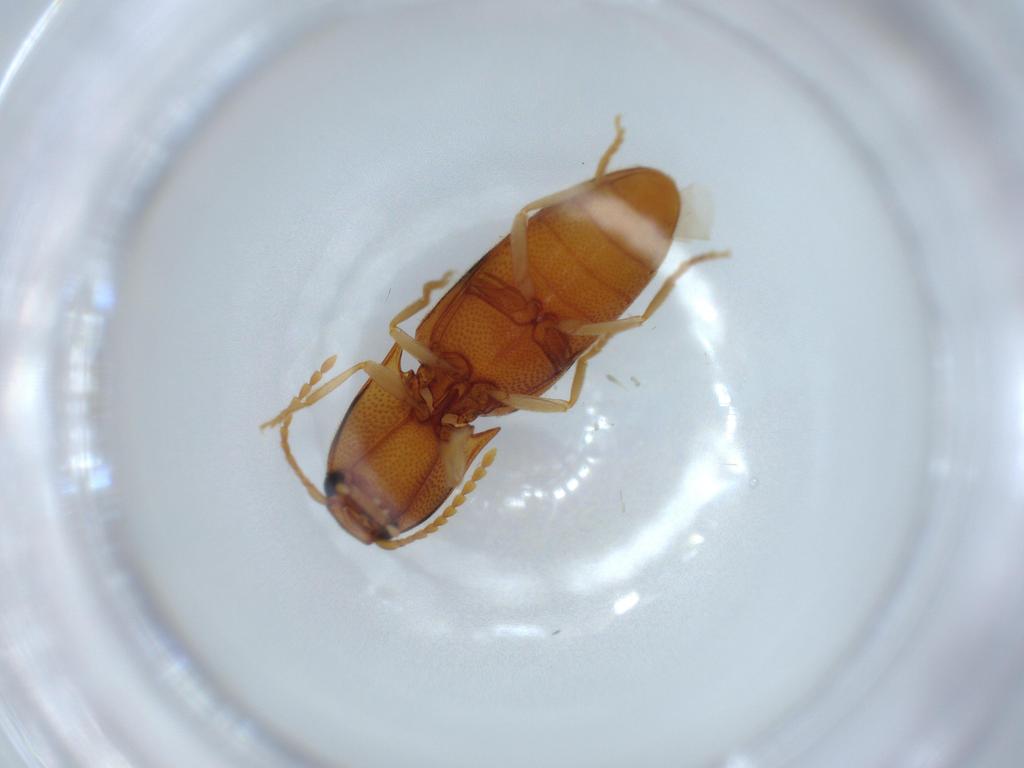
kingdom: Animalia
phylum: Arthropoda
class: Insecta
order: Coleoptera
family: Elateridae
